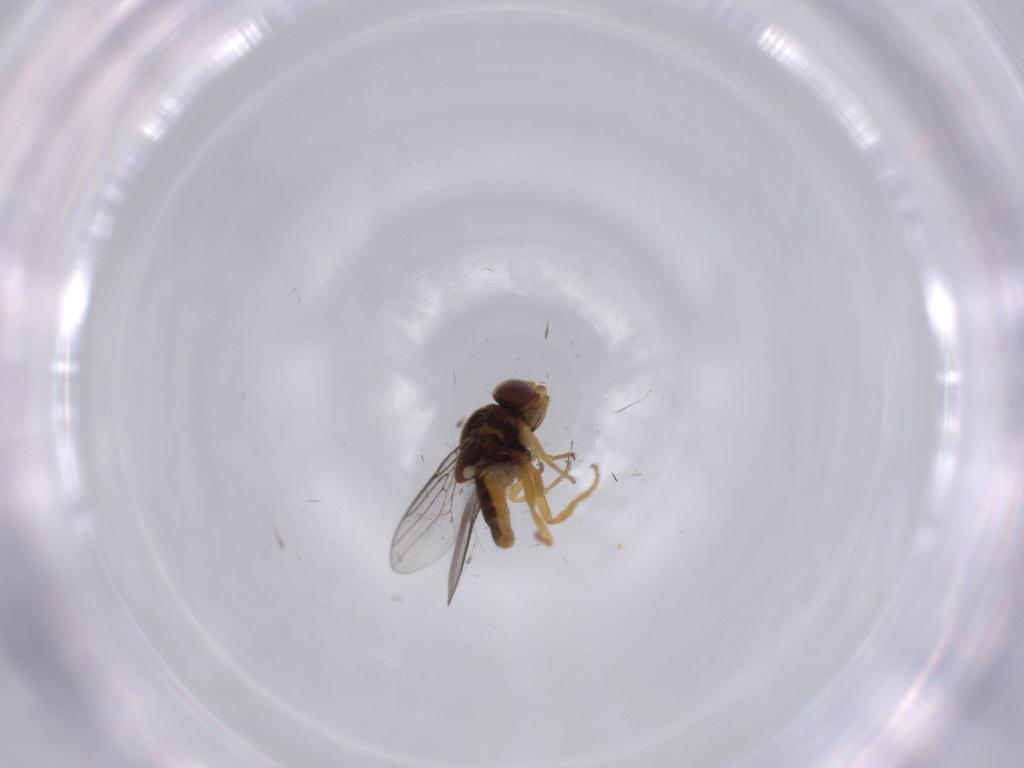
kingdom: Animalia
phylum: Arthropoda
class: Insecta
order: Diptera
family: Chloropidae
